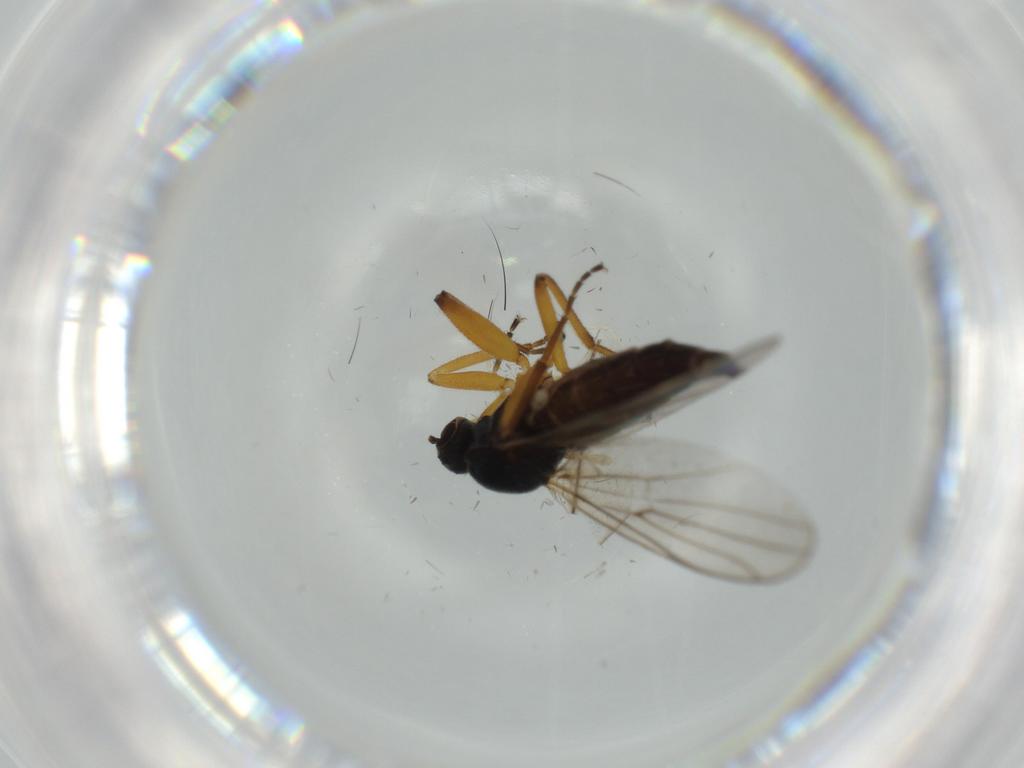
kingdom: Animalia
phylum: Arthropoda
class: Insecta
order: Diptera
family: Hybotidae
